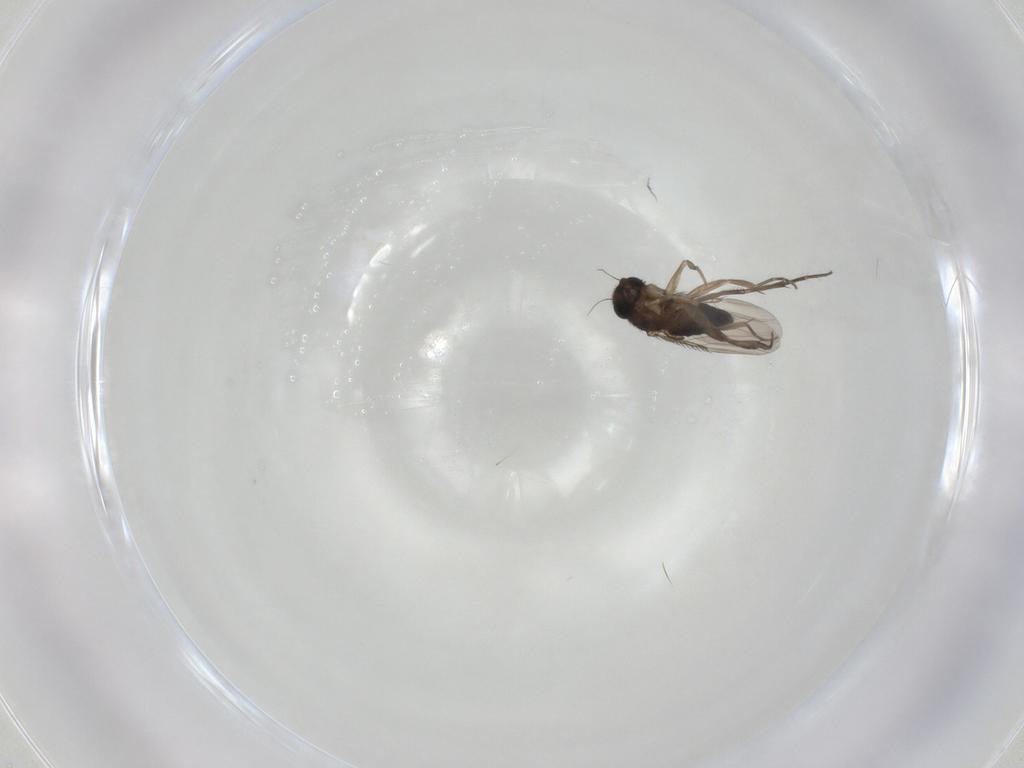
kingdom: Animalia
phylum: Arthropoda
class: Insecta
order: Diptera
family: Phoridae
